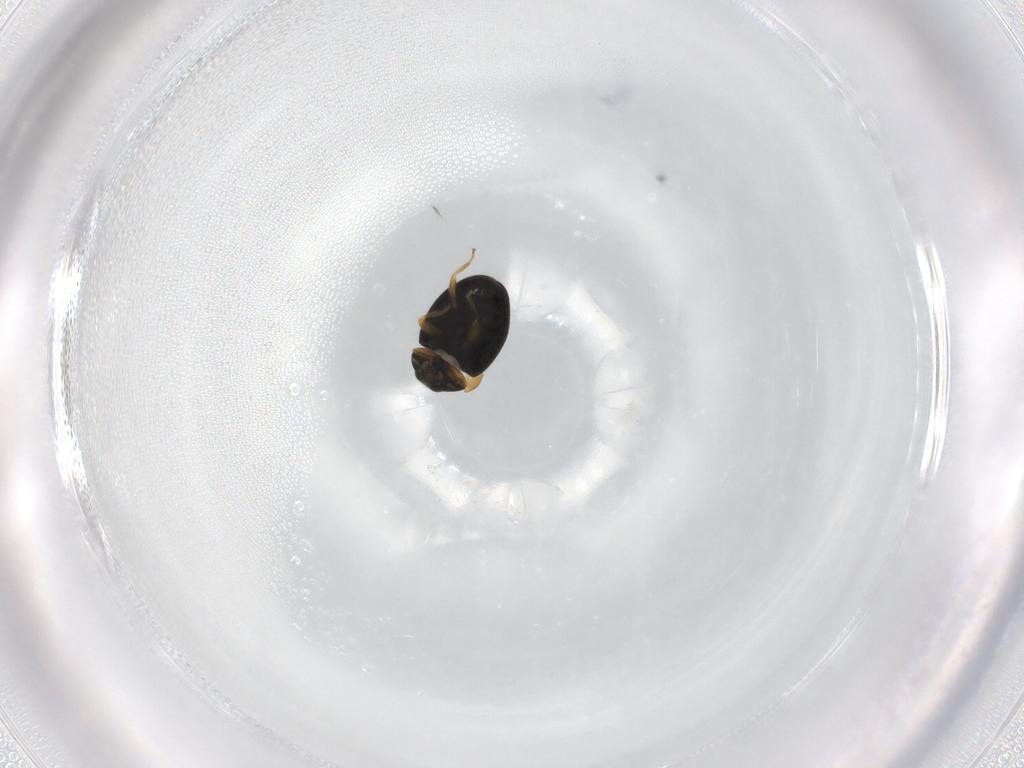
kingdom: Animalia
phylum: Arthropoda
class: Insecta
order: Coleoptera
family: Coccinellidae
